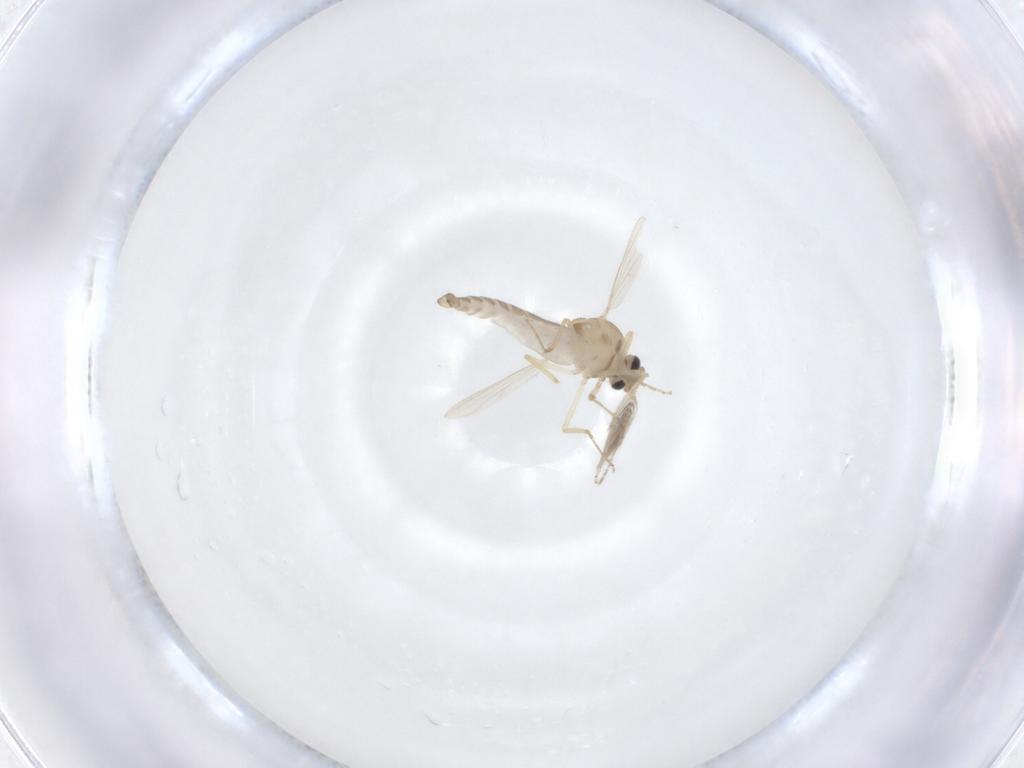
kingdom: Animalia
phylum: Arthropoda
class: Insecta
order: Diptera
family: Ceratopogonidae
